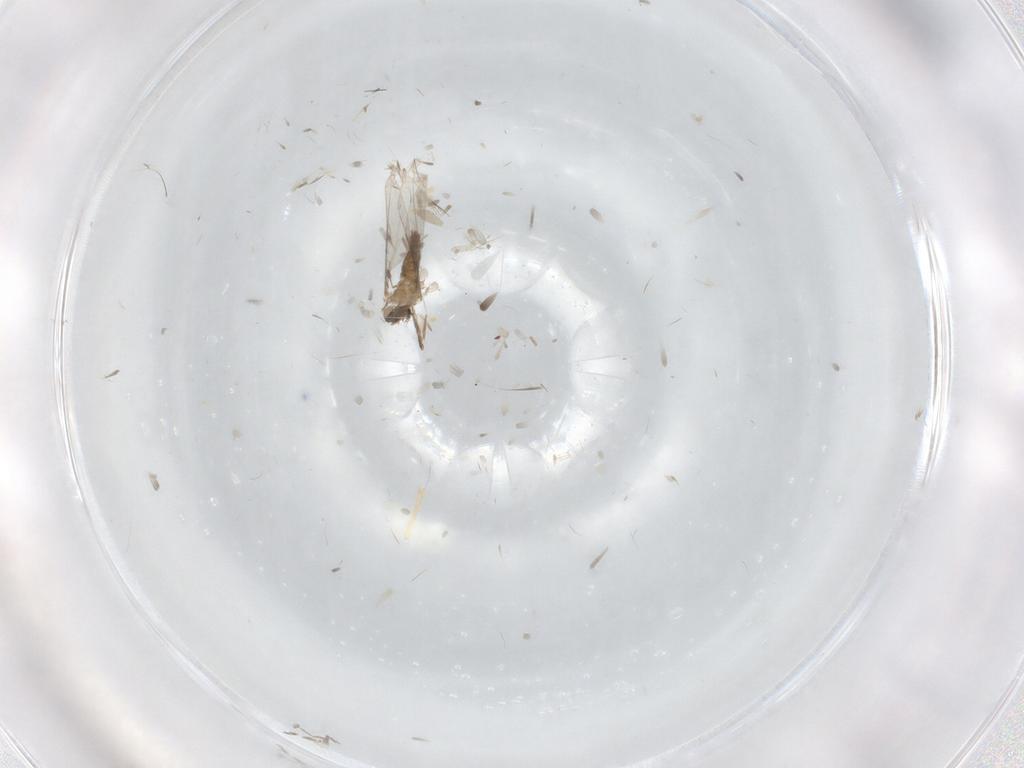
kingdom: Animalia
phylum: Arthropoda
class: Insecta
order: Diptera
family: Cecidomyiidae
